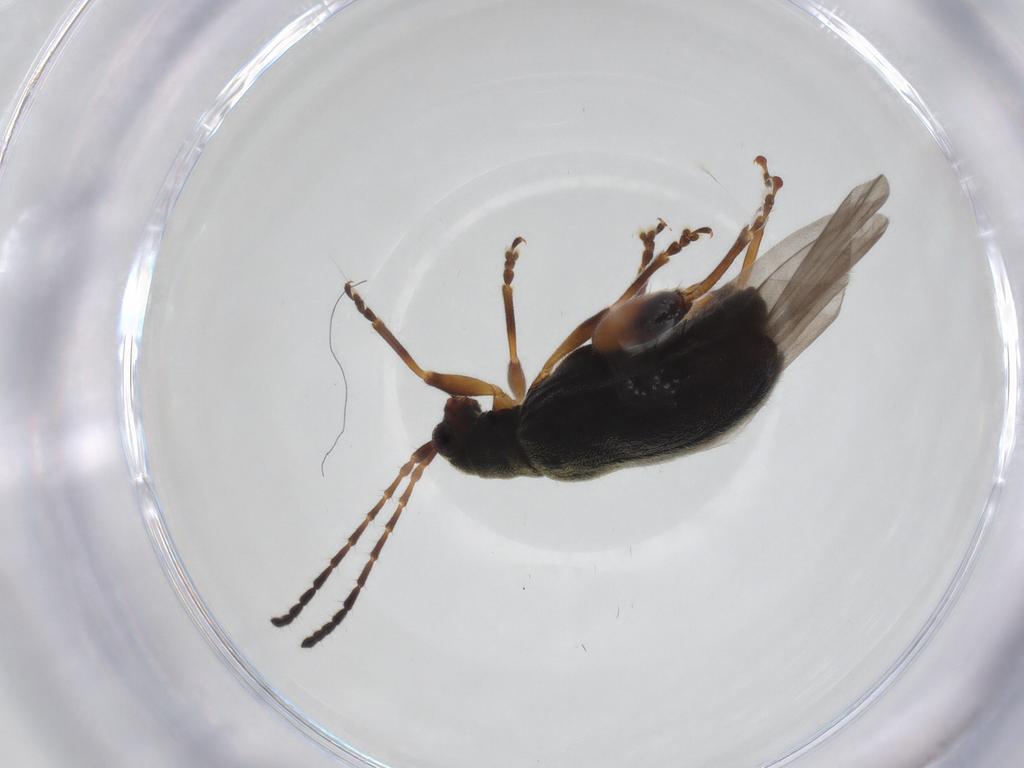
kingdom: Animalia
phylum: Arthropoda
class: Insecta
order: Coleoptera
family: Chrysomelidae
